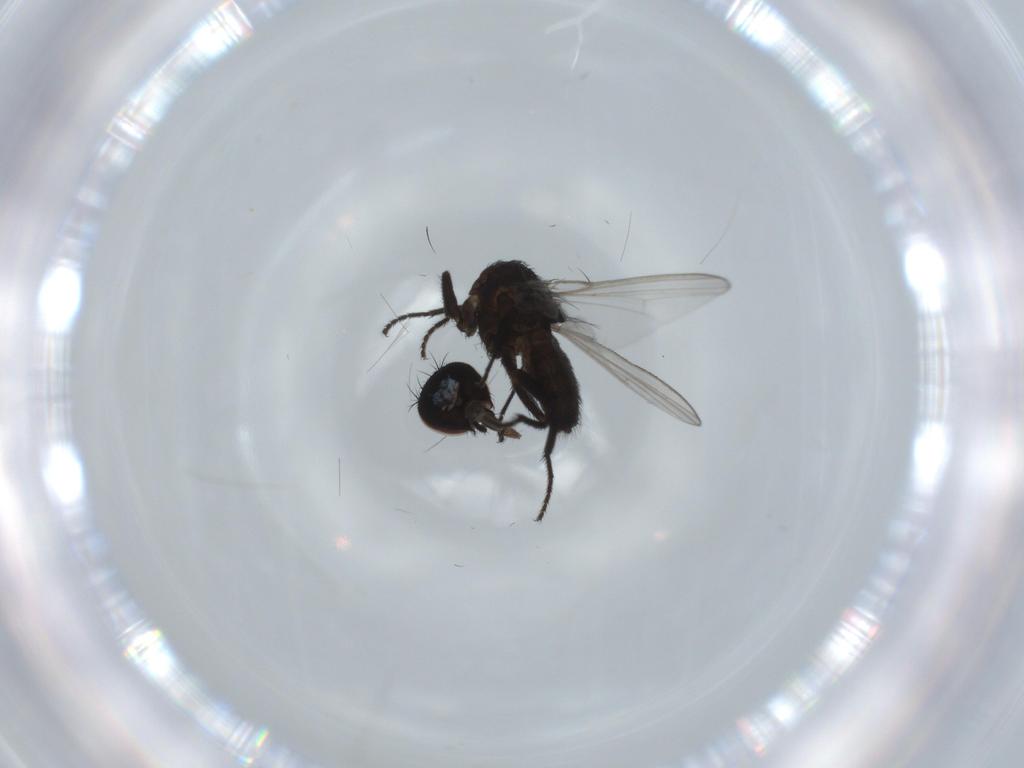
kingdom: Animalia
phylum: Arthropoda
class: Insecta
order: Diptera
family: Milichiidae
